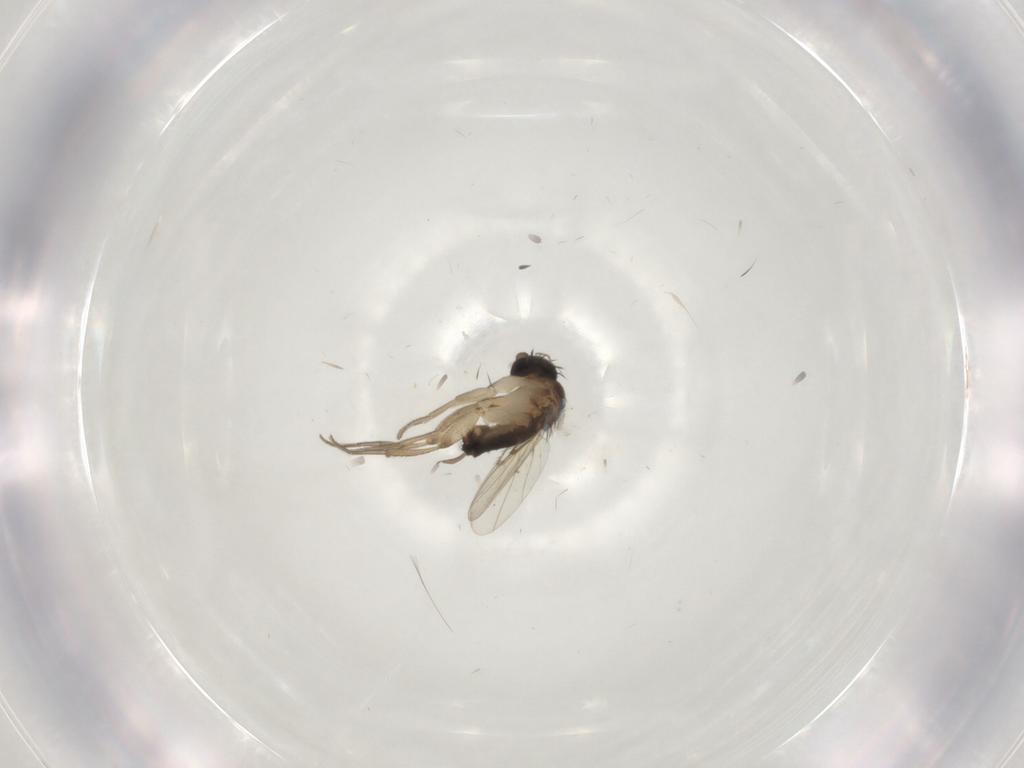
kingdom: Animalia
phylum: Arthropoda
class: Insecta
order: Diptera
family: Chironomidae
